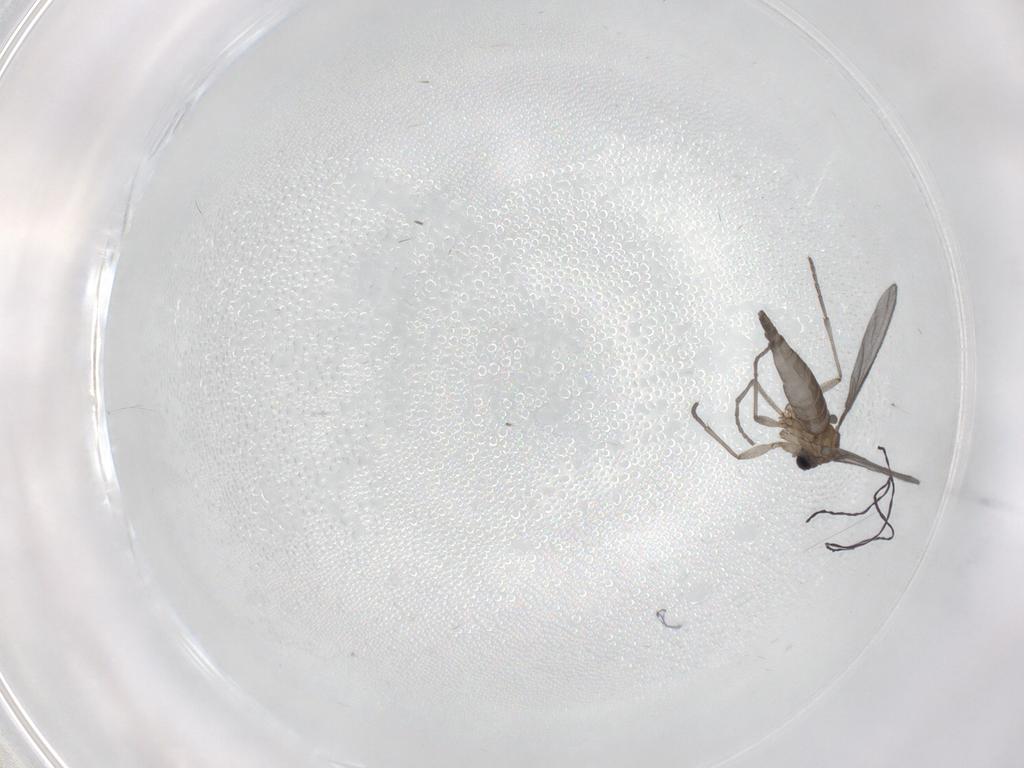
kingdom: Animalia
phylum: Arthropoda
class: Insecta
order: Diptera
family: Sciaridae
